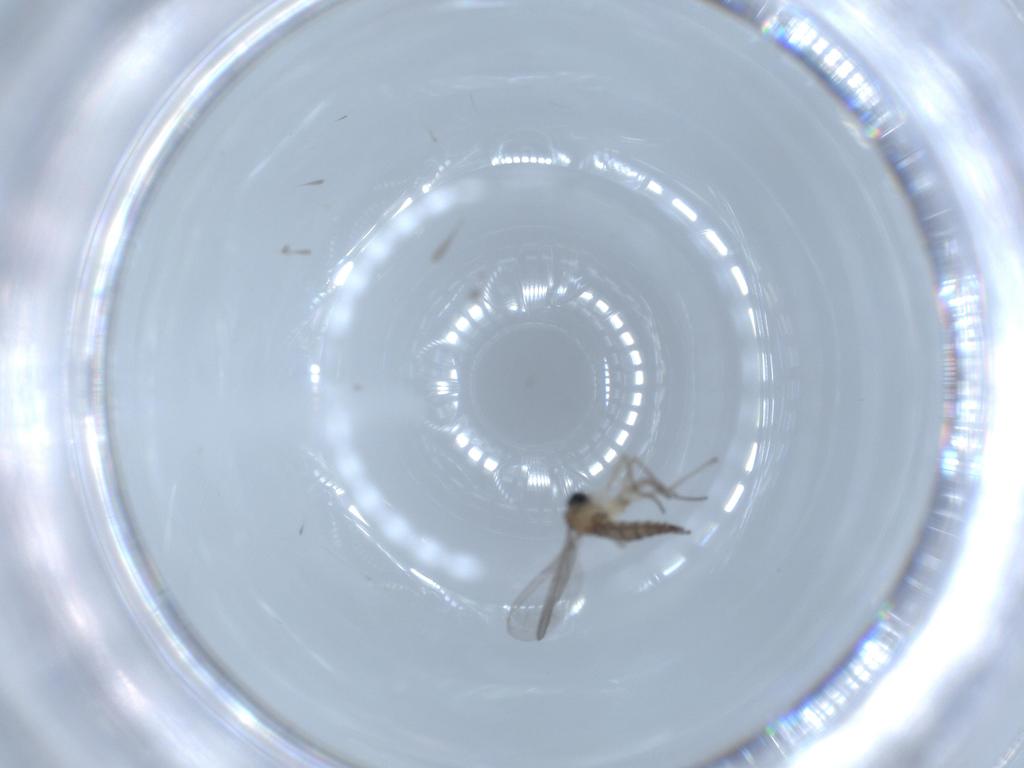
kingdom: Animalia
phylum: Arthropoda
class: Insecta
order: Diptera
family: Sciaridae
